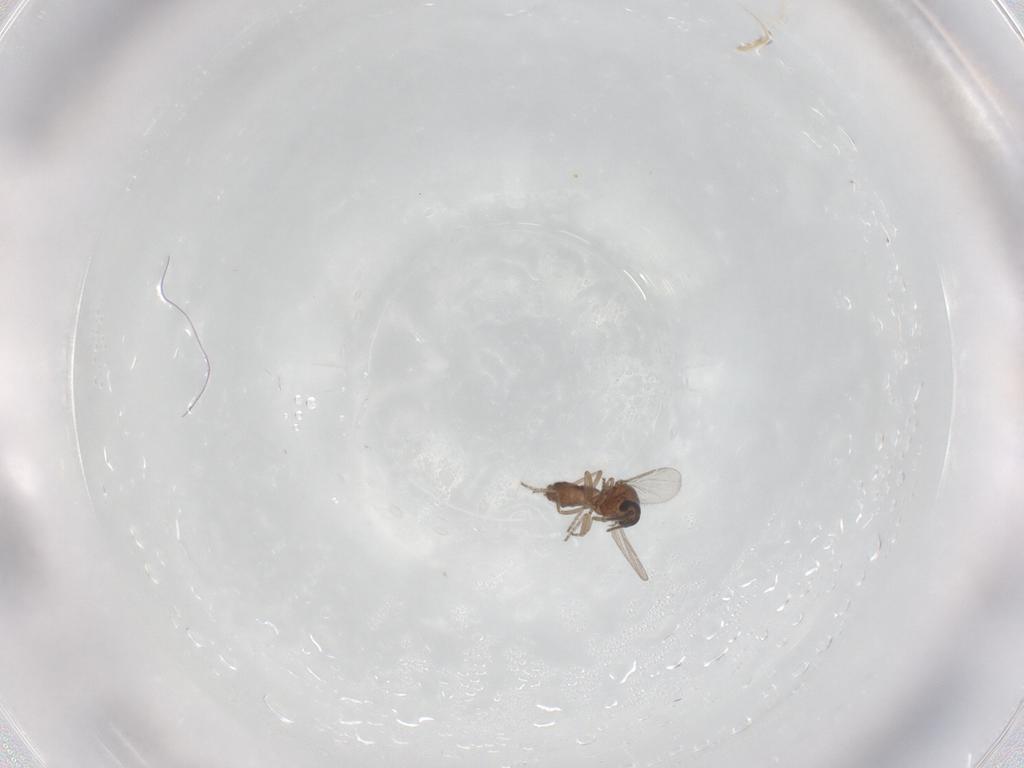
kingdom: Animalia
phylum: Arthropoda
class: Insecta
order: Diptera
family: Ceratopogonidae
